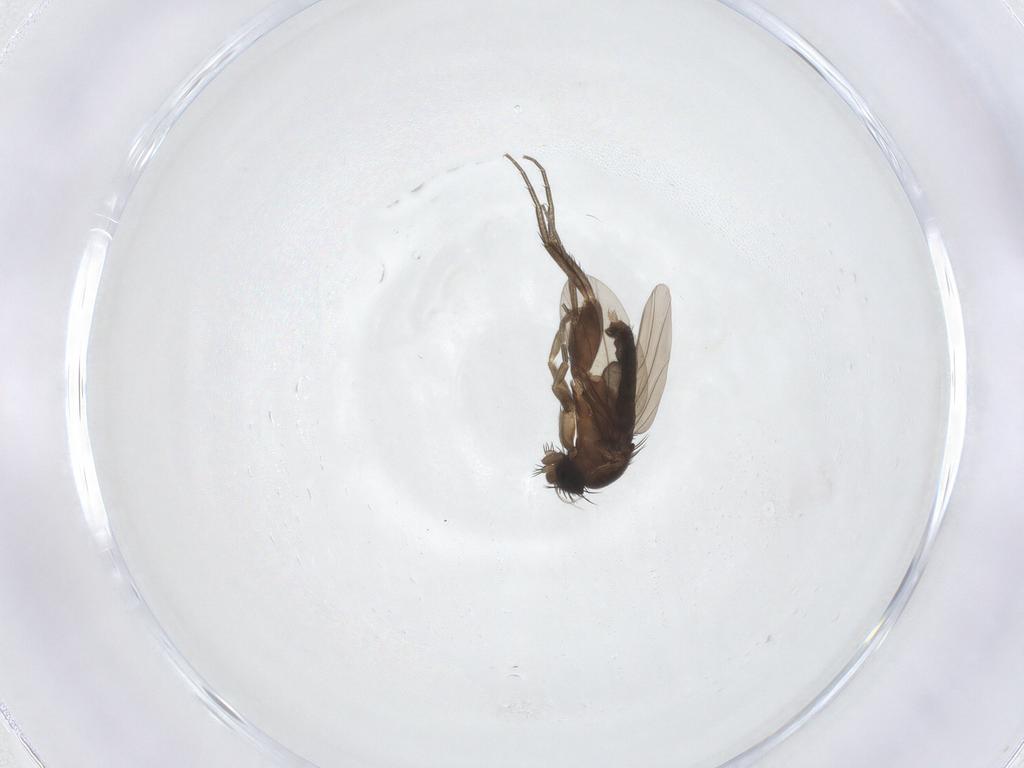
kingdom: Animalia
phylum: Arthropoda
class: Insecta
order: Diptera
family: Phoridae
